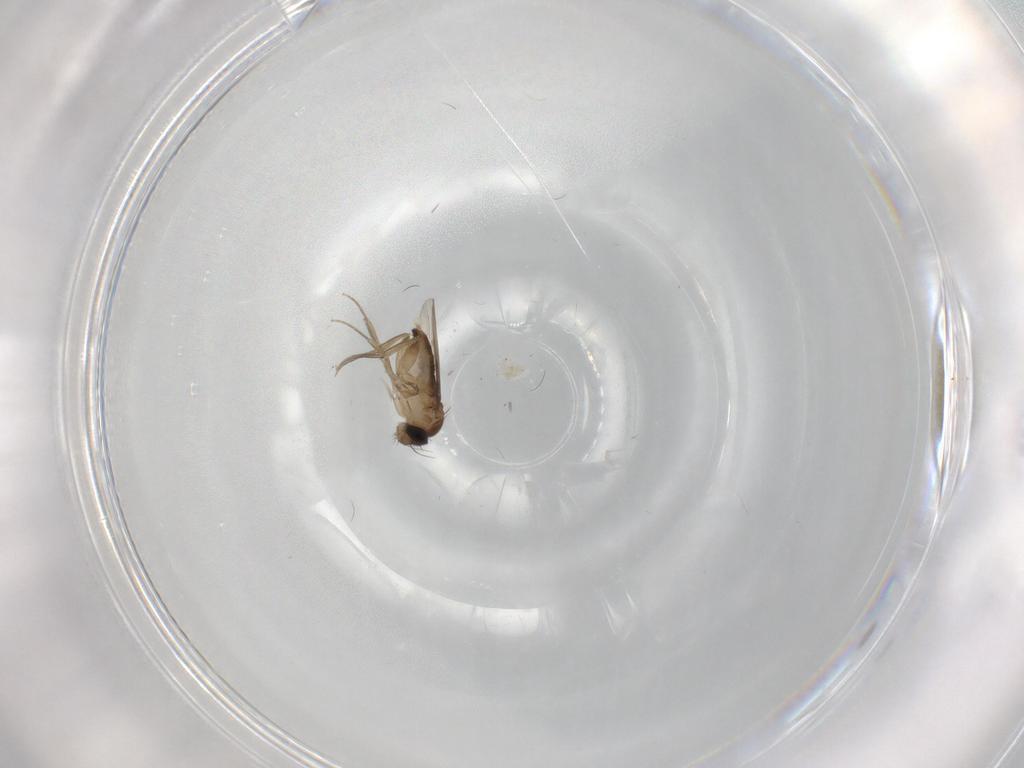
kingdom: Animalia
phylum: Arthropoda
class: Insecta
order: Diptera
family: Phoridae
